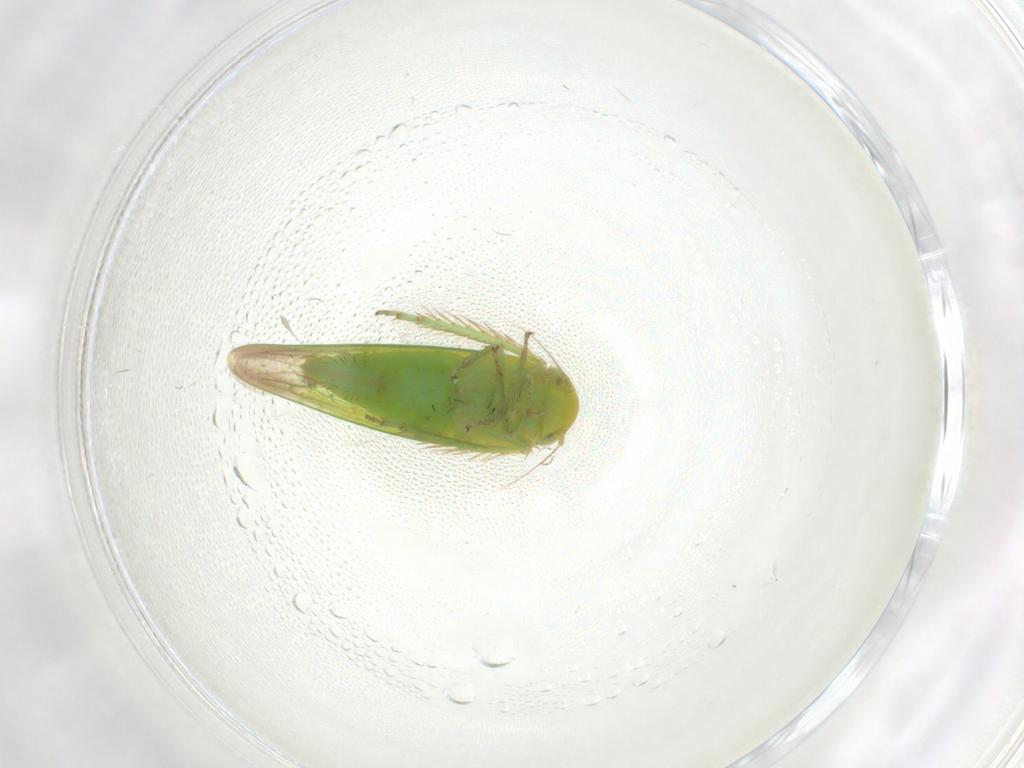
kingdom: Animalia
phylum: Arthropoda
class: Insecta
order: Hemiptera
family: Cicadellidae
